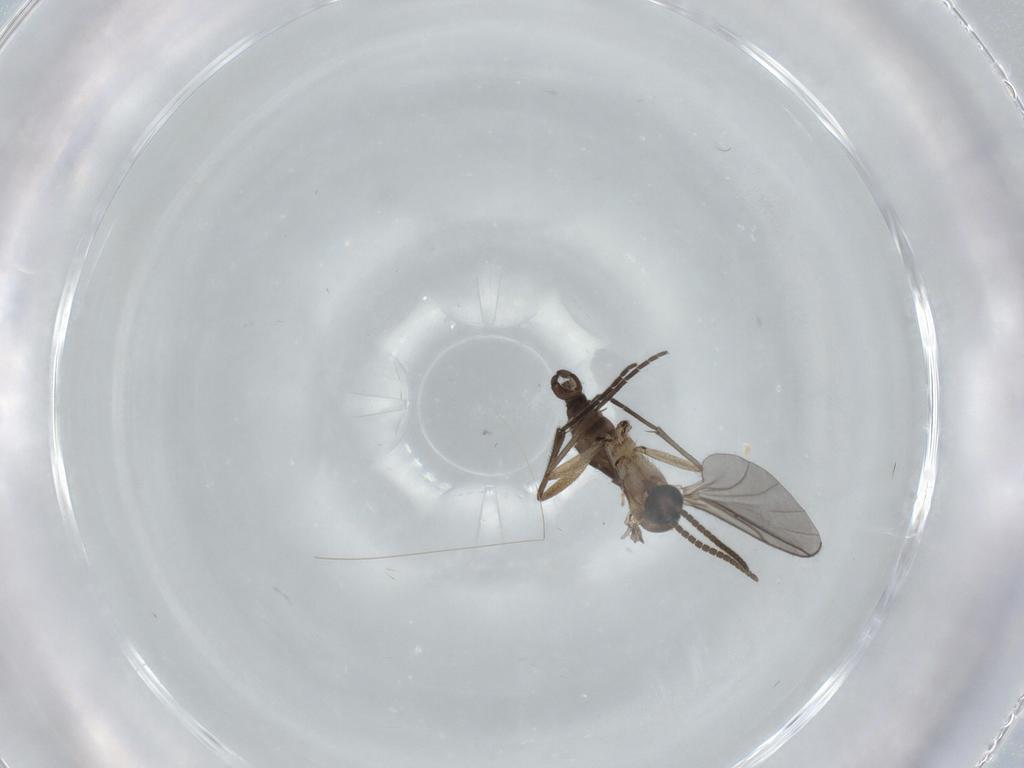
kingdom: Animalia
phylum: Arthropoda
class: Insecta
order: Diptera
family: Sciaridae
